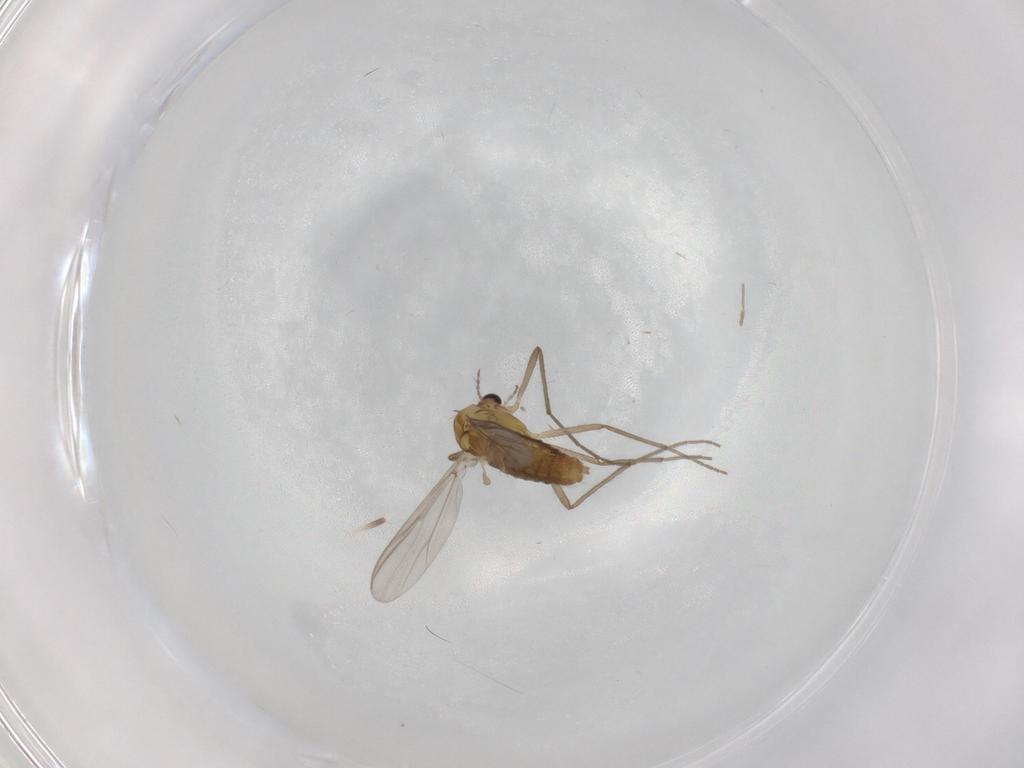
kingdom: Animalia
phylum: Arthropoda
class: Insecta
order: Diptera
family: Chironomidae
